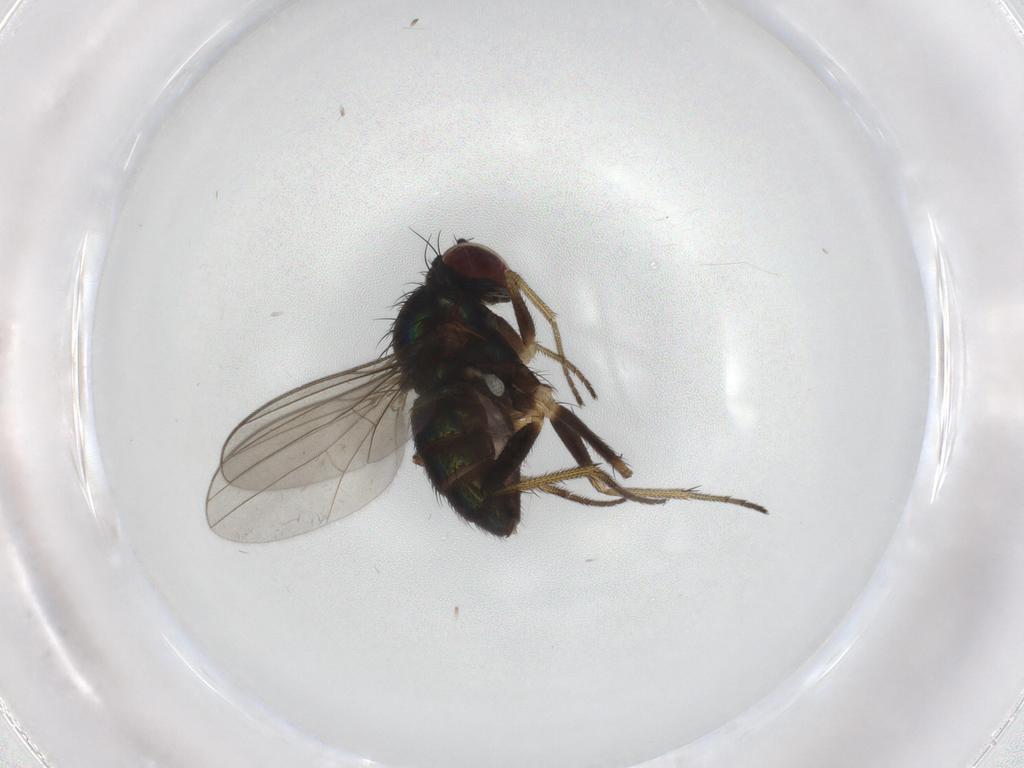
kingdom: Animalia
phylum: Arthropoda
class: Insecta
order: Diptera
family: Dolichopodidae
